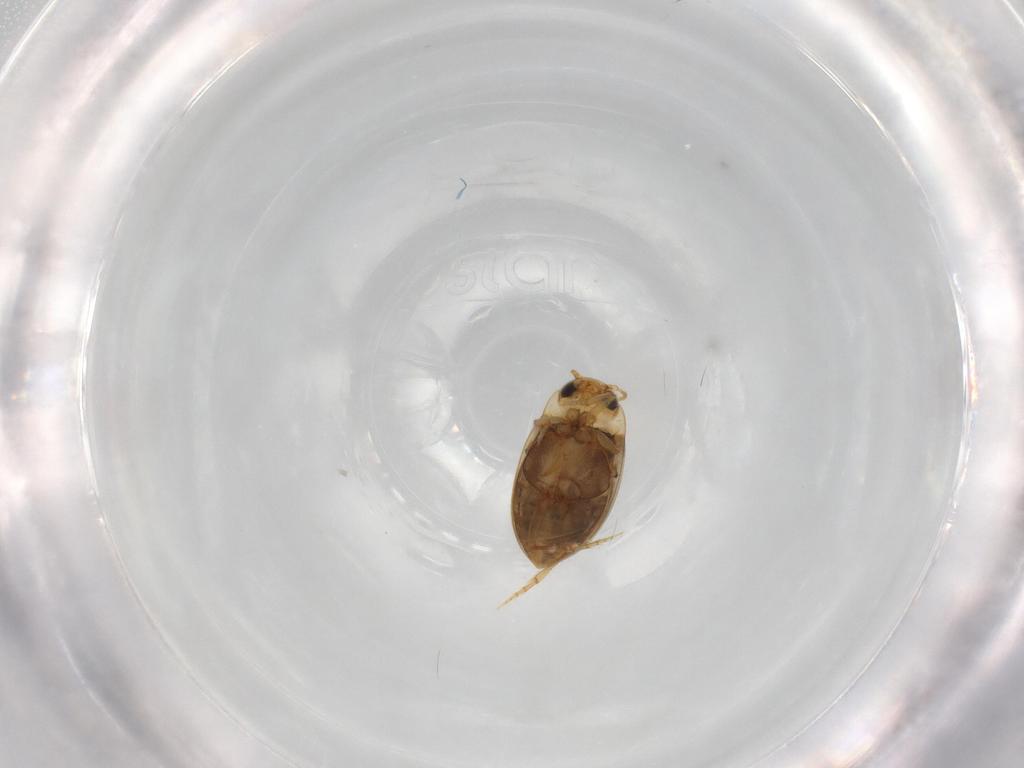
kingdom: Animalia
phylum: Arthropoda
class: Insecta
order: Coleoptera
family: Dytiscidae
